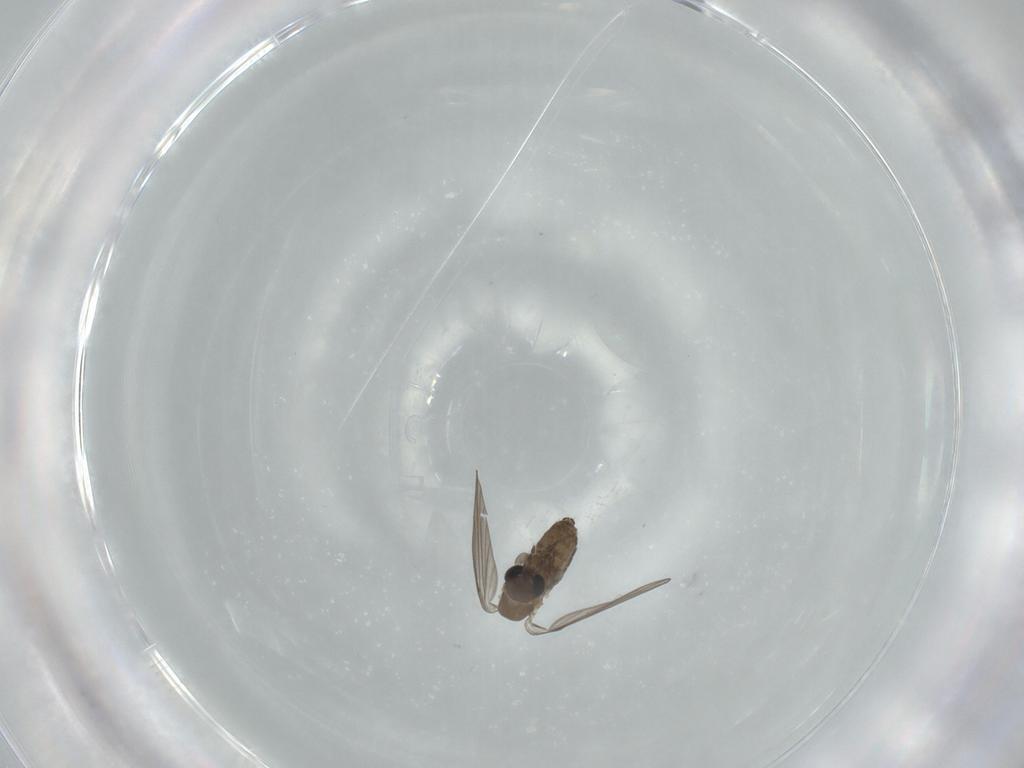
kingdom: Animalia
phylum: Arthropoda
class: Insecta
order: Diptera
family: Psychodidae
